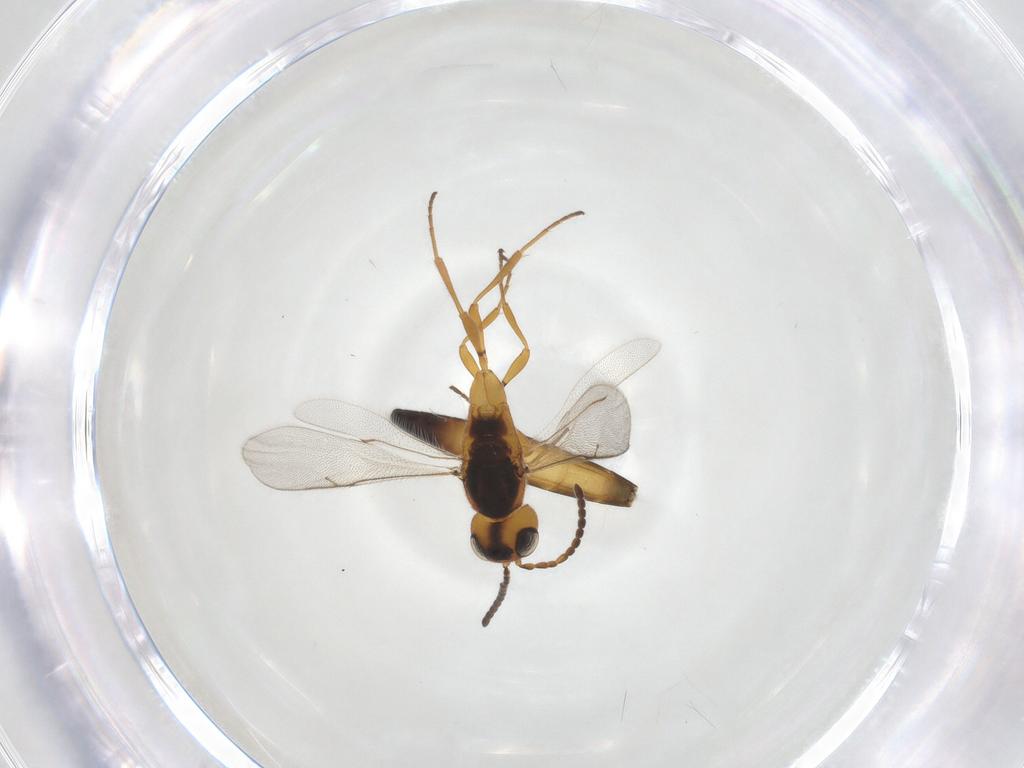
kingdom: Animalia
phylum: Arthropoda
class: Insecta
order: Hymenoptera
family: Scelionidae
